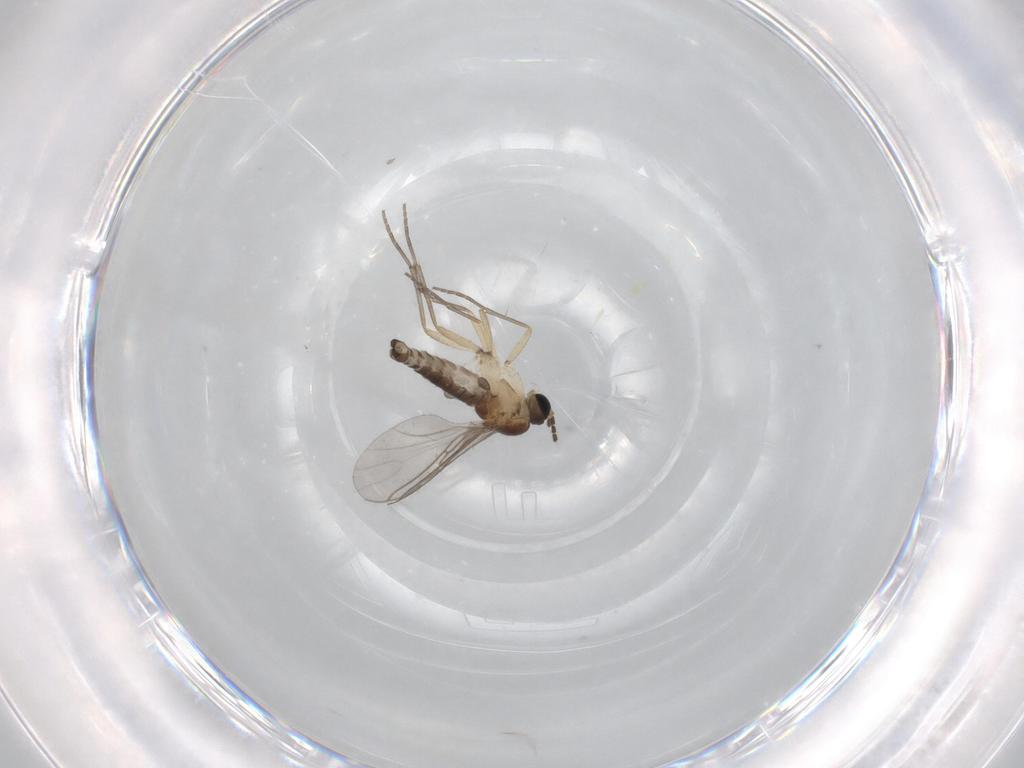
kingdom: Animalia
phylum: Arthropoda
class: Insecta
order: Diptera
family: Sciaridae
